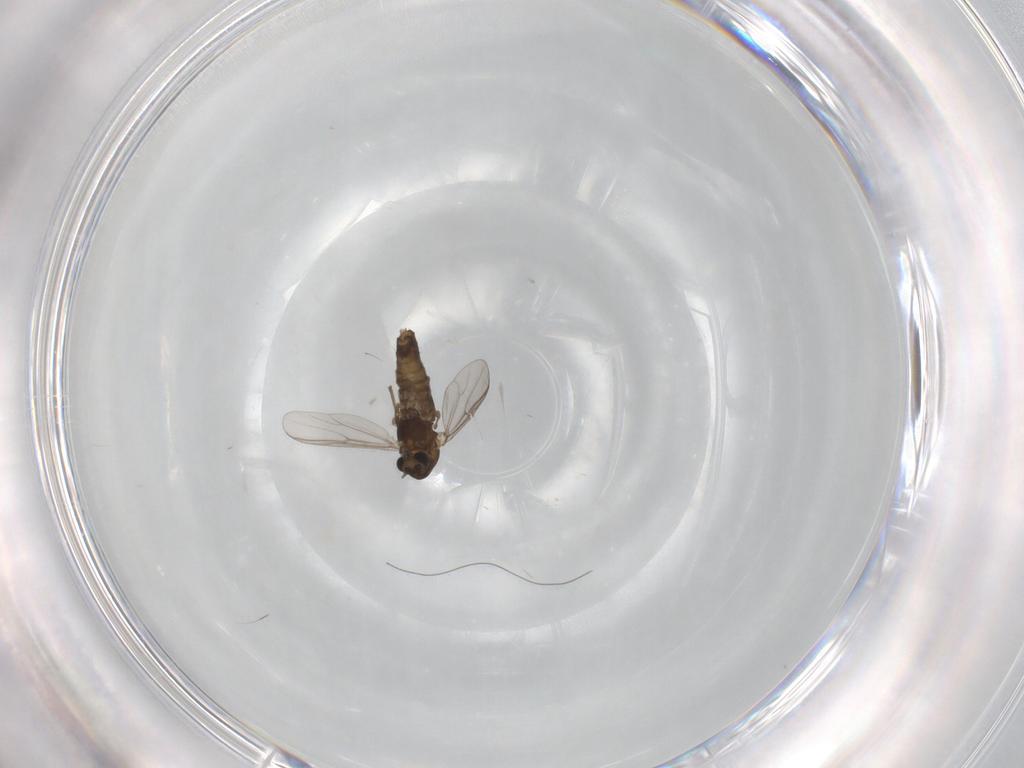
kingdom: Animalia
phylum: Arthropoda
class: Insecta
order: Diptera
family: Chironomidae
